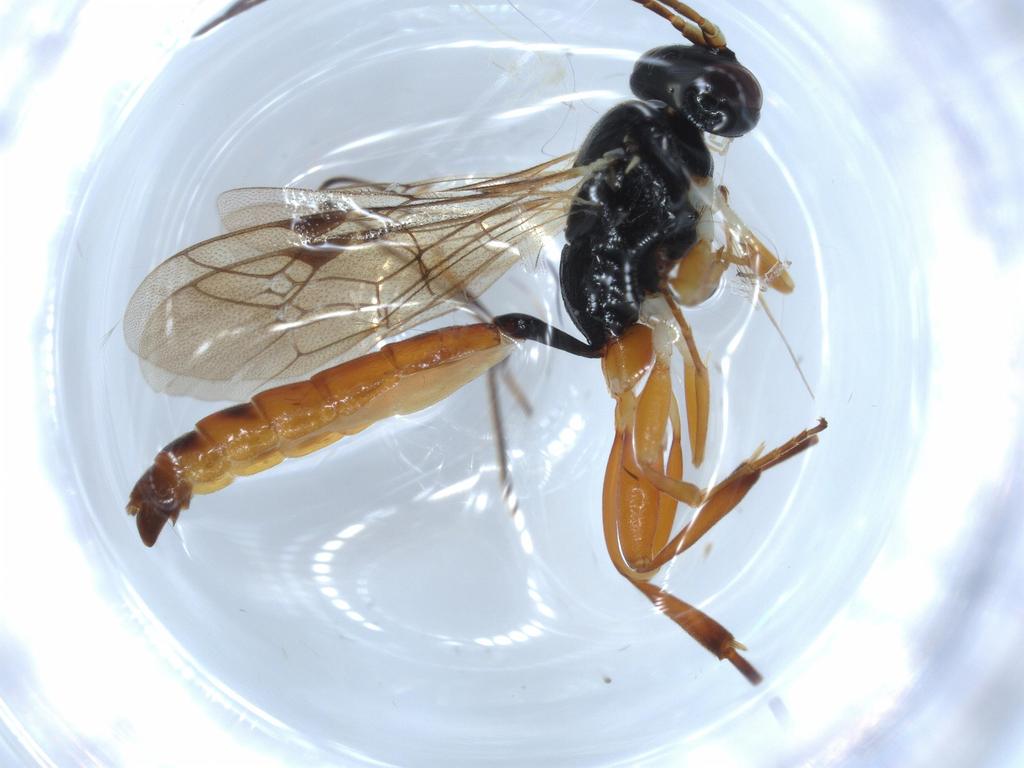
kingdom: Animalia
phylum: Arthropoda
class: Insecta
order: Hymenoptera
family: Ichneumonidae
